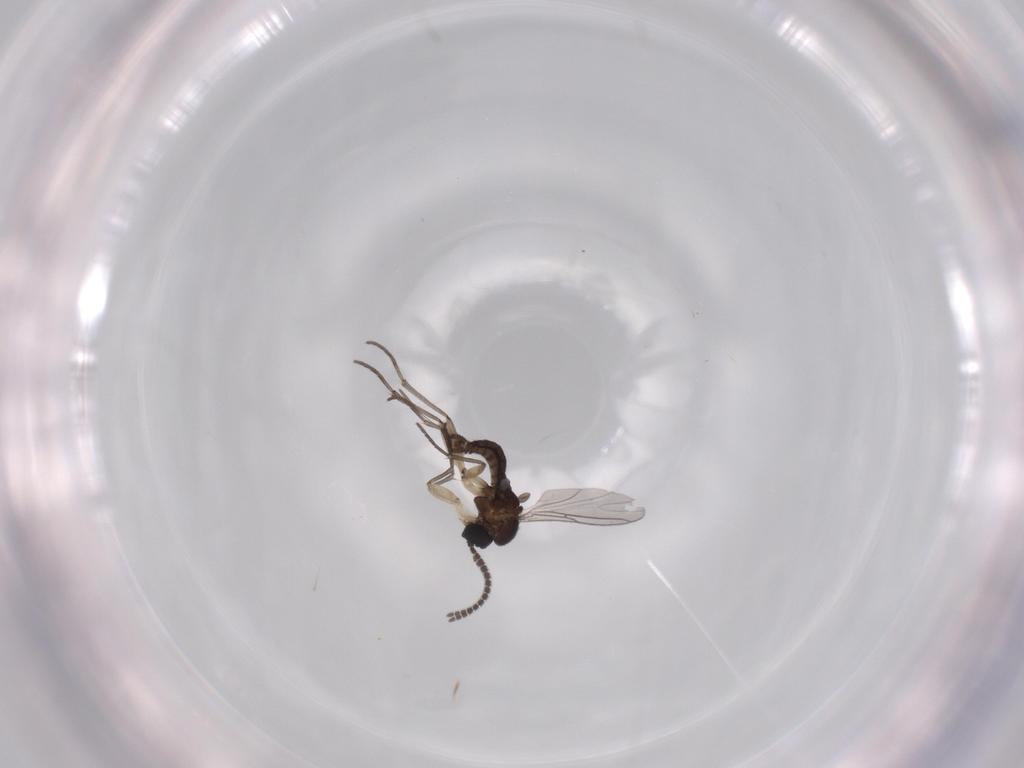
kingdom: Animalia
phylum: Arthropoda
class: Insecta
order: Diptera
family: Sciaridae
